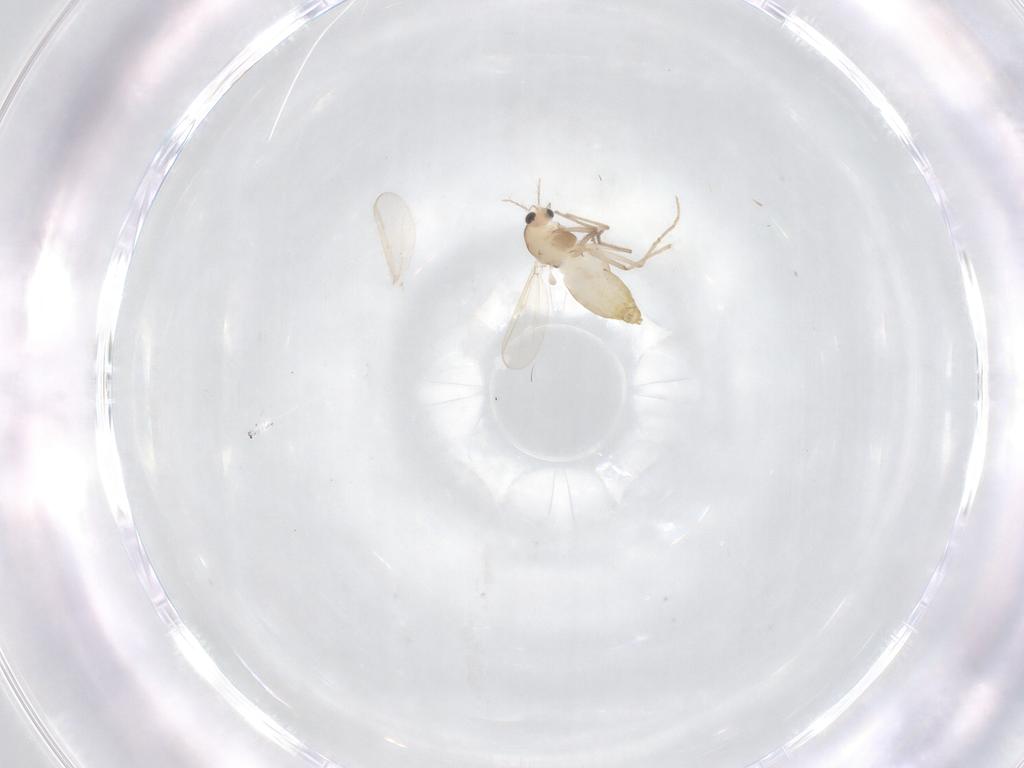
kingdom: Animalia
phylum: Arthropoda
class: Insecta
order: Diptera
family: Chironomidae
